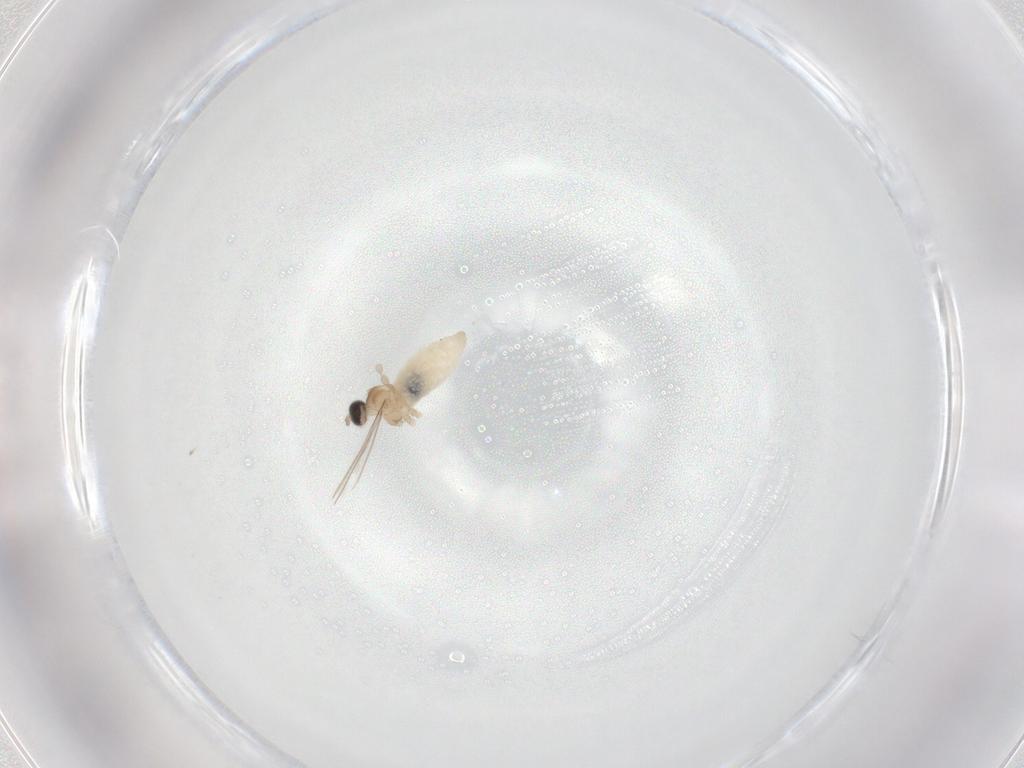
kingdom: Animalia
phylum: Arthropoda
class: Insecta
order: Diptera
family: Cecidomyiidae
